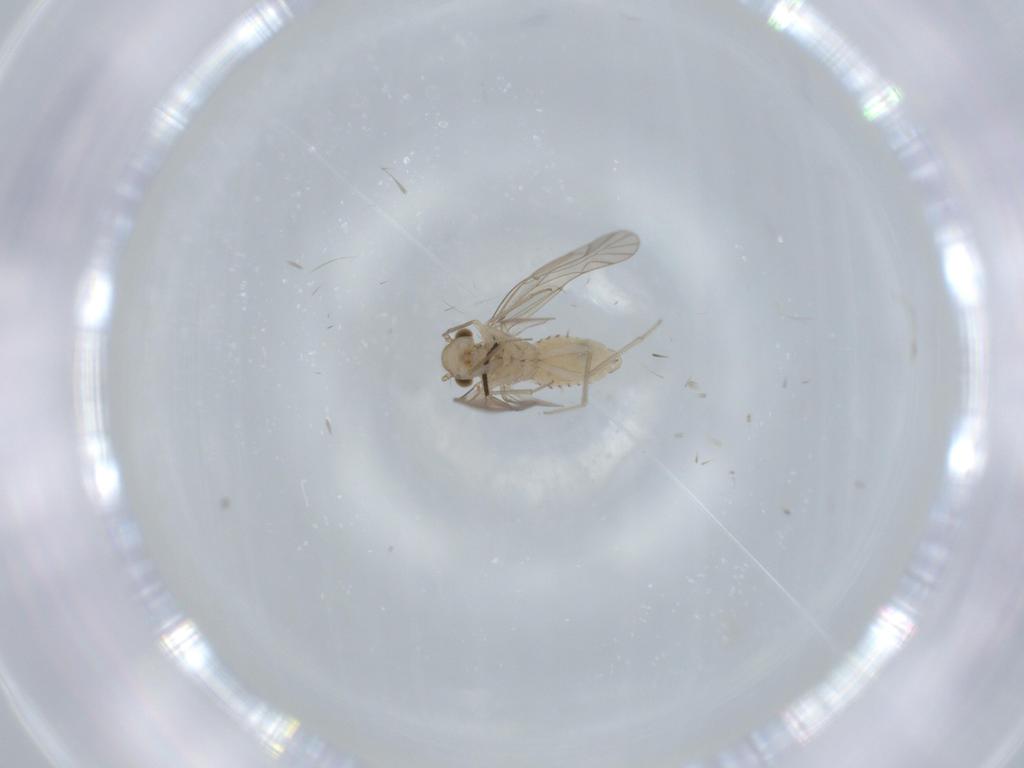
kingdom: Animalia
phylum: Arthropoda
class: Insecta
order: Psocodea
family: Lachesillidae
